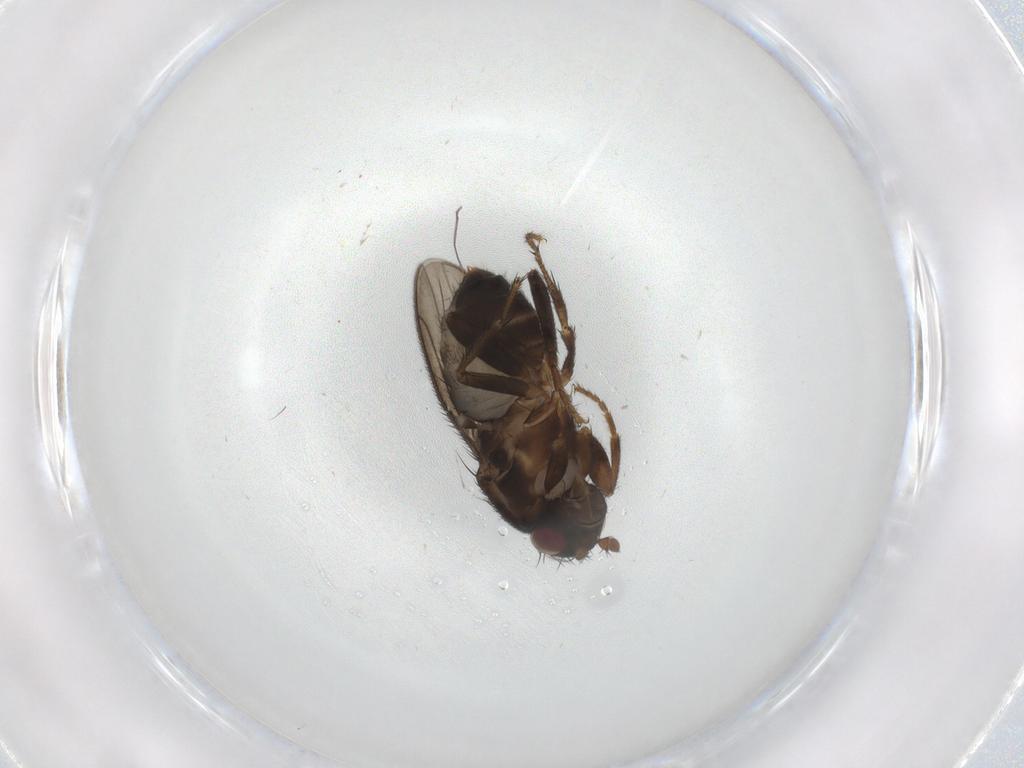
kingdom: Animalia
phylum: Arthropoda
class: Insecta
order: Diptera
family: Sphaeroceridae
